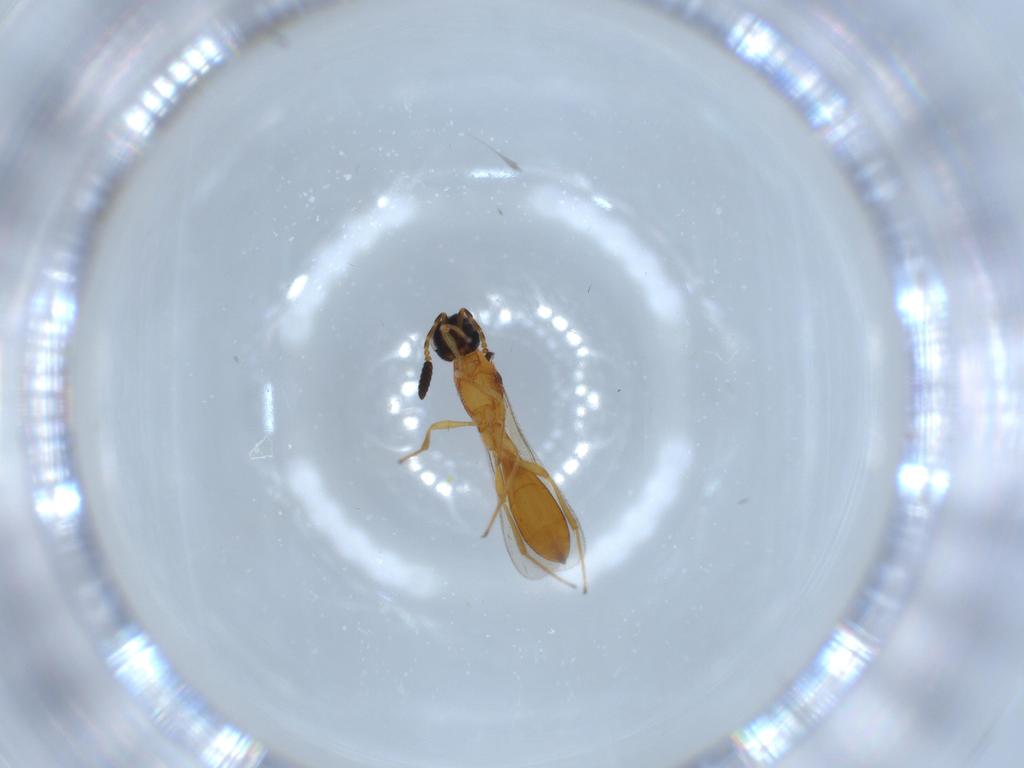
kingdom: Animalia
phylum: Arthropoda
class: Insecta
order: Hymenoptera
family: Scelionidae
